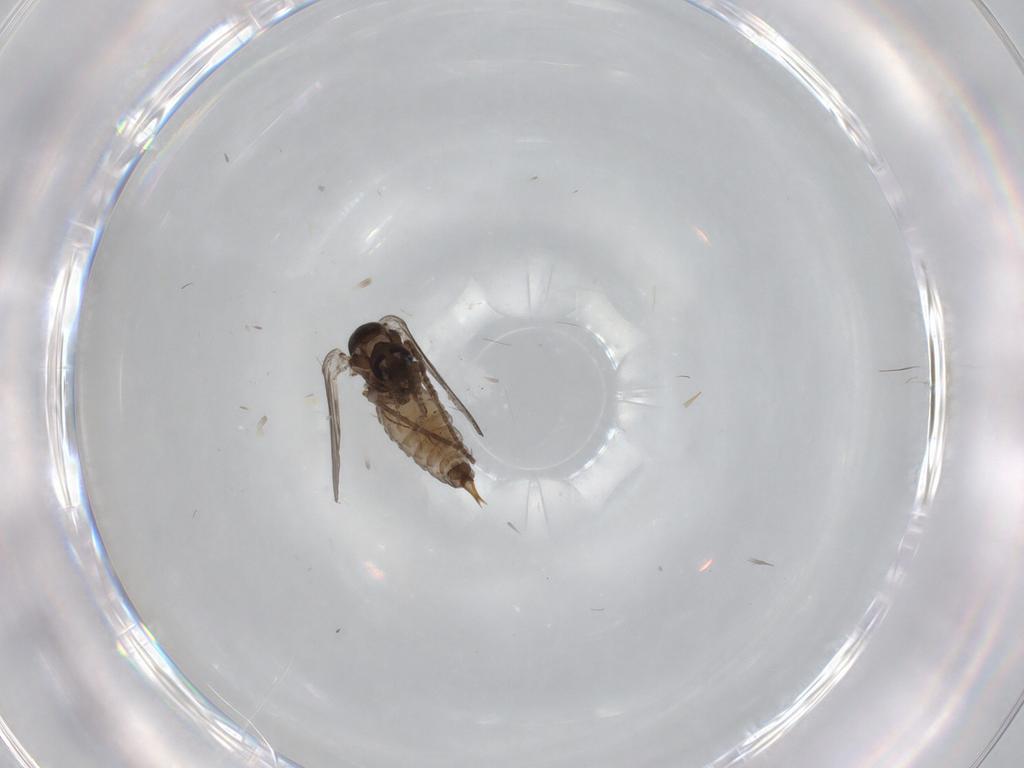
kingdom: Animalia
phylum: Arthropoda
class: Insecta
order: Diptera
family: Psychodidae
